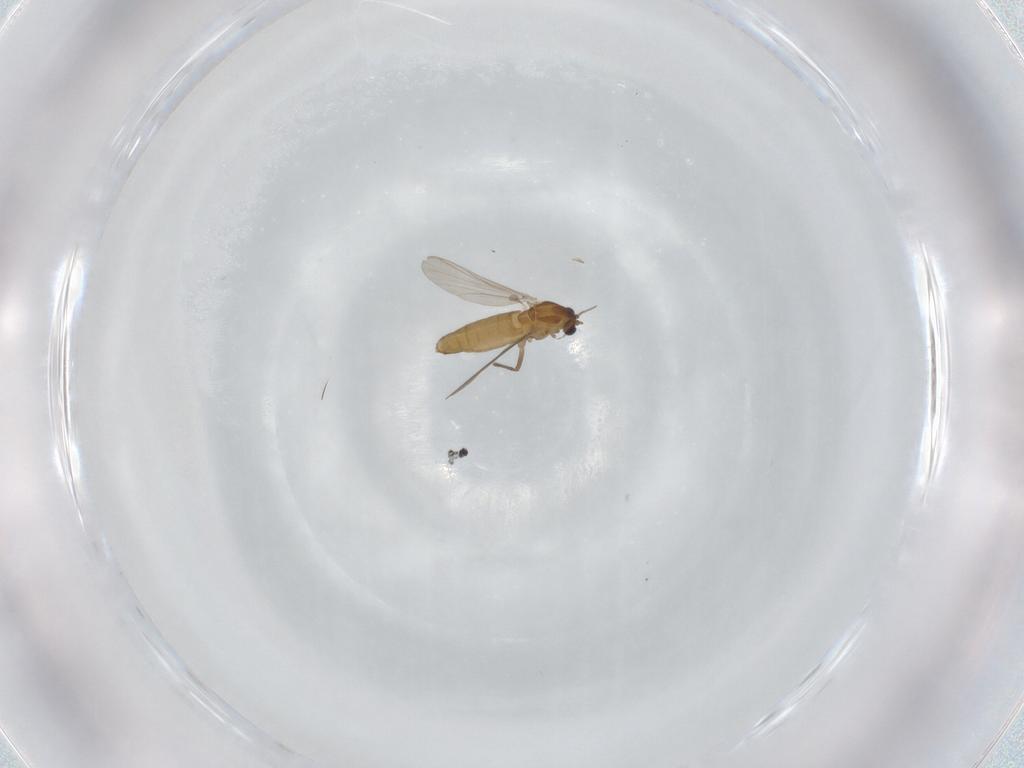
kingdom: Animalia
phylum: Arthropoda
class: Insecta
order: Diptera
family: Chironomidae
